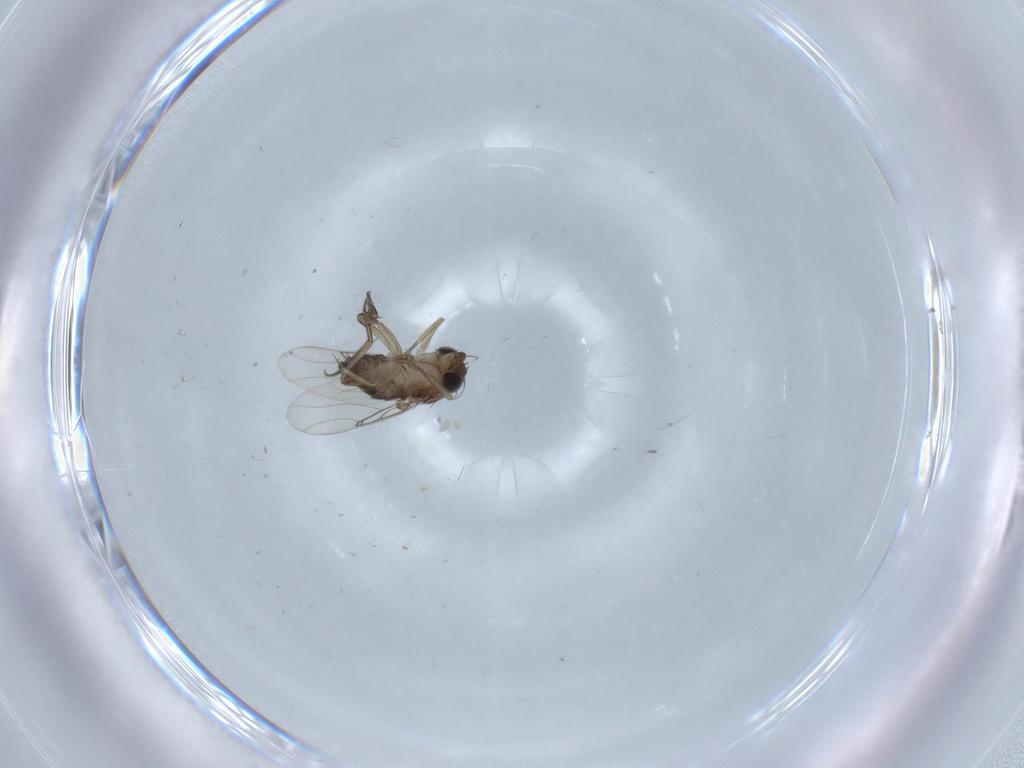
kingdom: Animalia
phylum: Arthropoda
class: Insecta
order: Diptera
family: Phoridae
